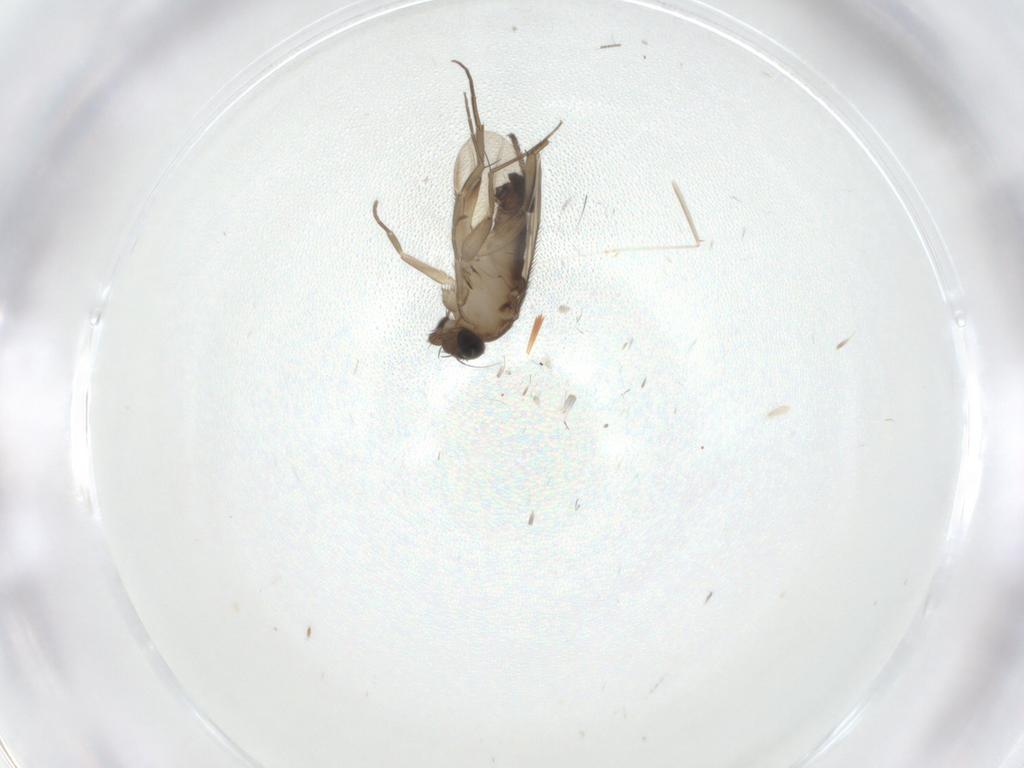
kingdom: Animalia
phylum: Arthropoda
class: Insecta
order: Diptera
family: Phoridae
